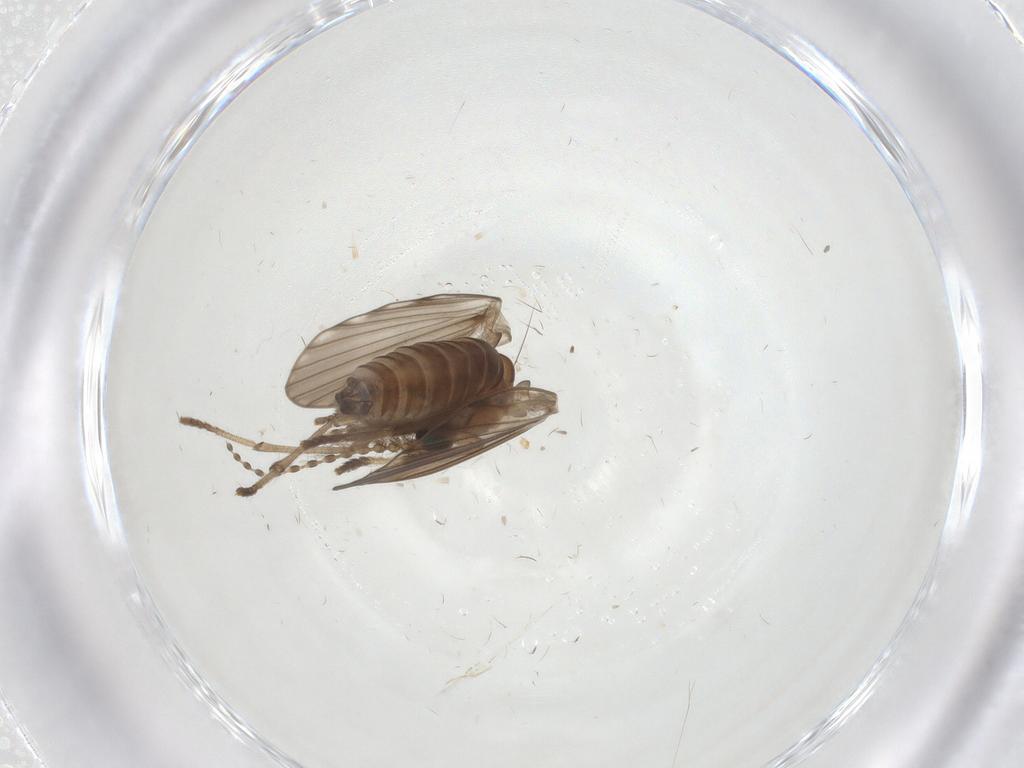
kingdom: Animalia
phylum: Arthropoda
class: Insecta
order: Diptera
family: Psychodidae
